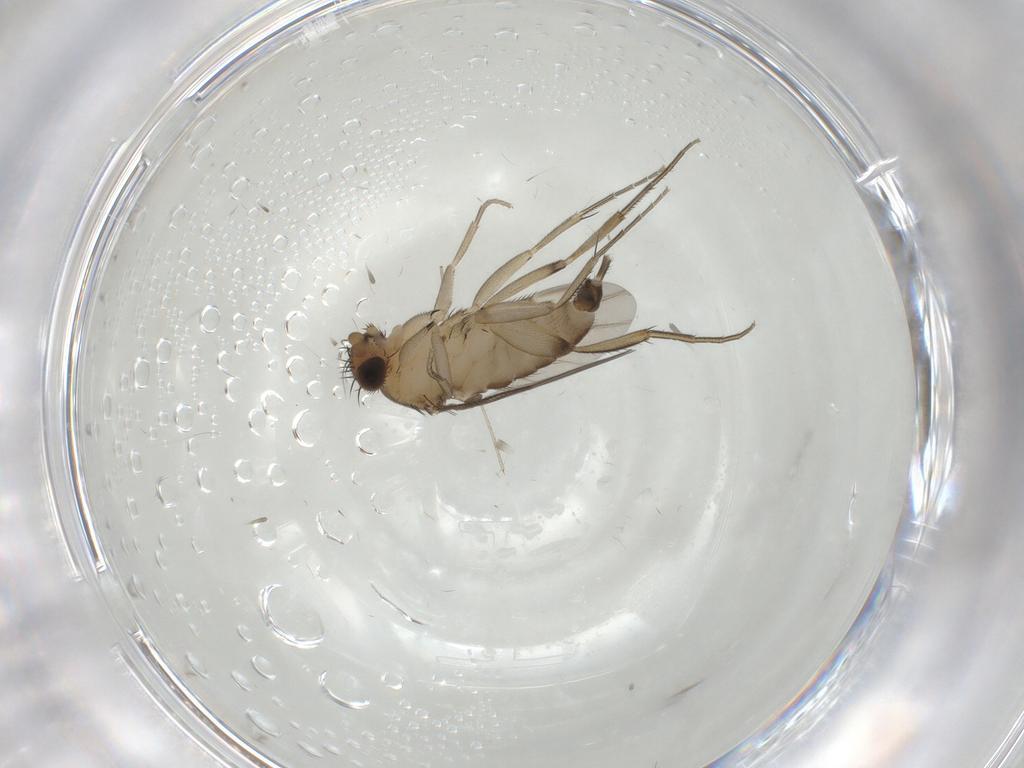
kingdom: Animalia
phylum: Arthropoda
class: Insecta
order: Diptera
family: Phoridae
